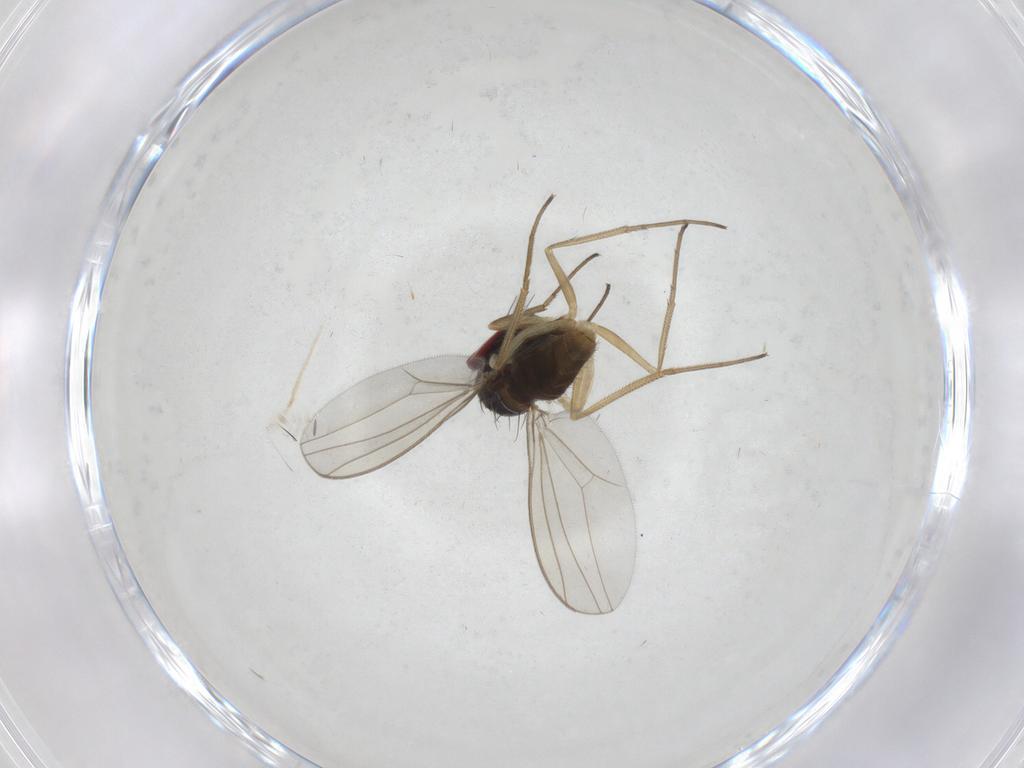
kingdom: Animalia
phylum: Arthropoda
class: Insecta
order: Diptera
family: Dolichopodidae
